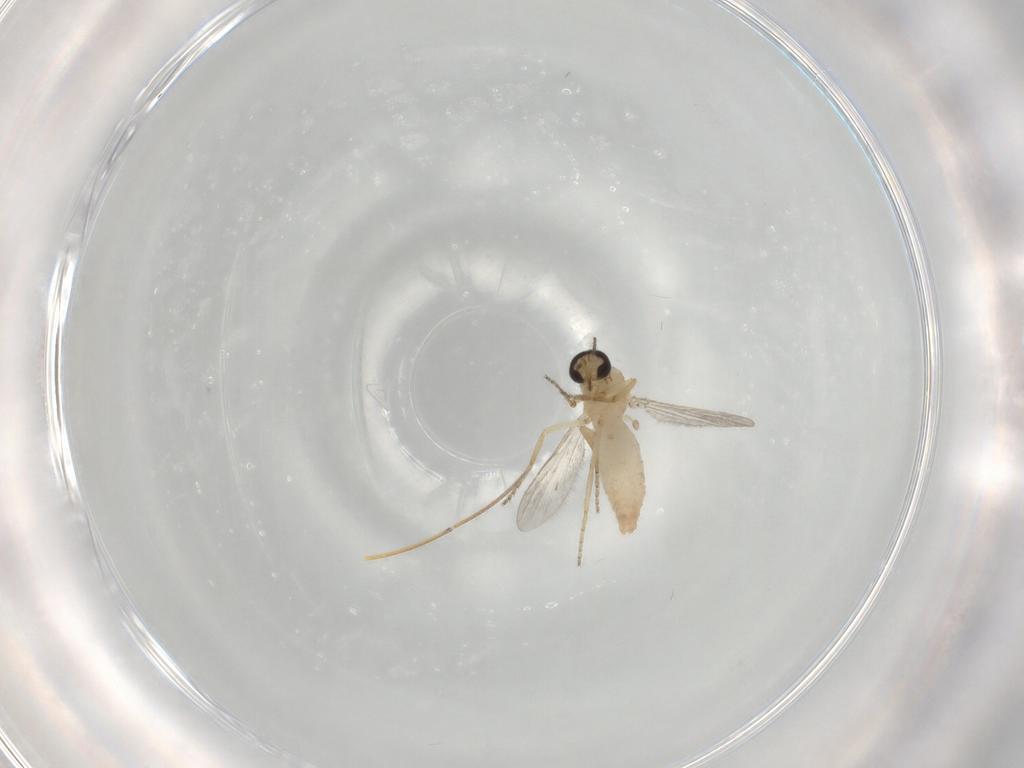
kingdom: Animalia
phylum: Arthropoda
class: Insecta
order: Diptera
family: Ceratopogonidae
